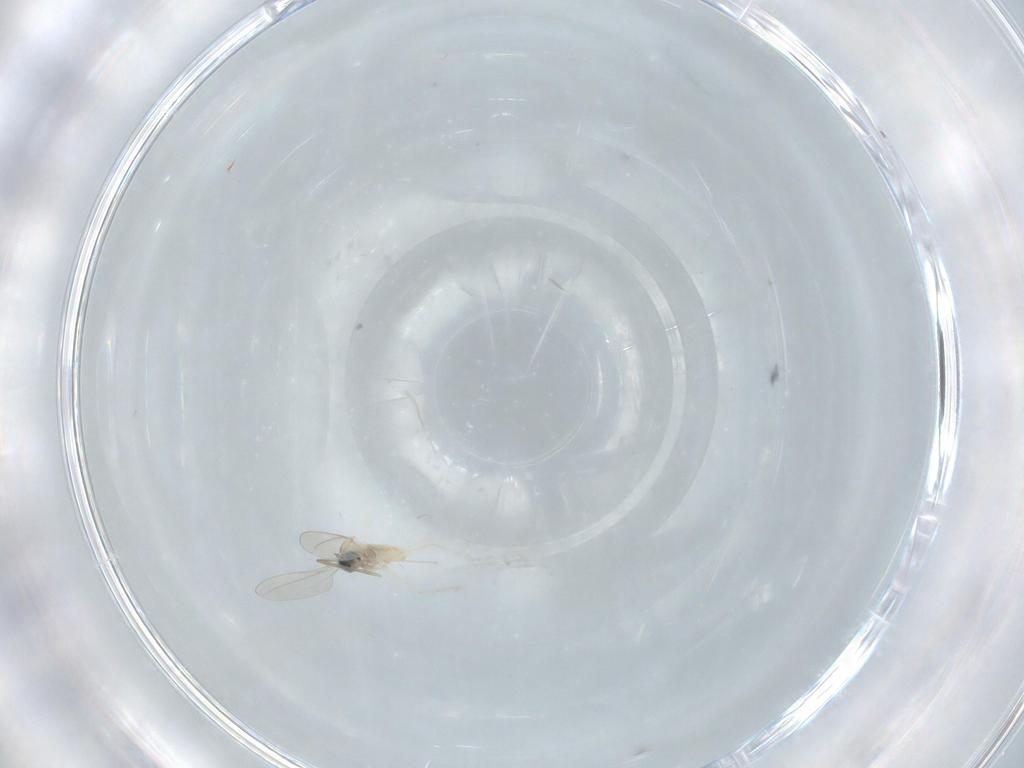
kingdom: Animalia
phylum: Arthropoda
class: Insecta
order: Diptera
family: Cecidomyiidae
